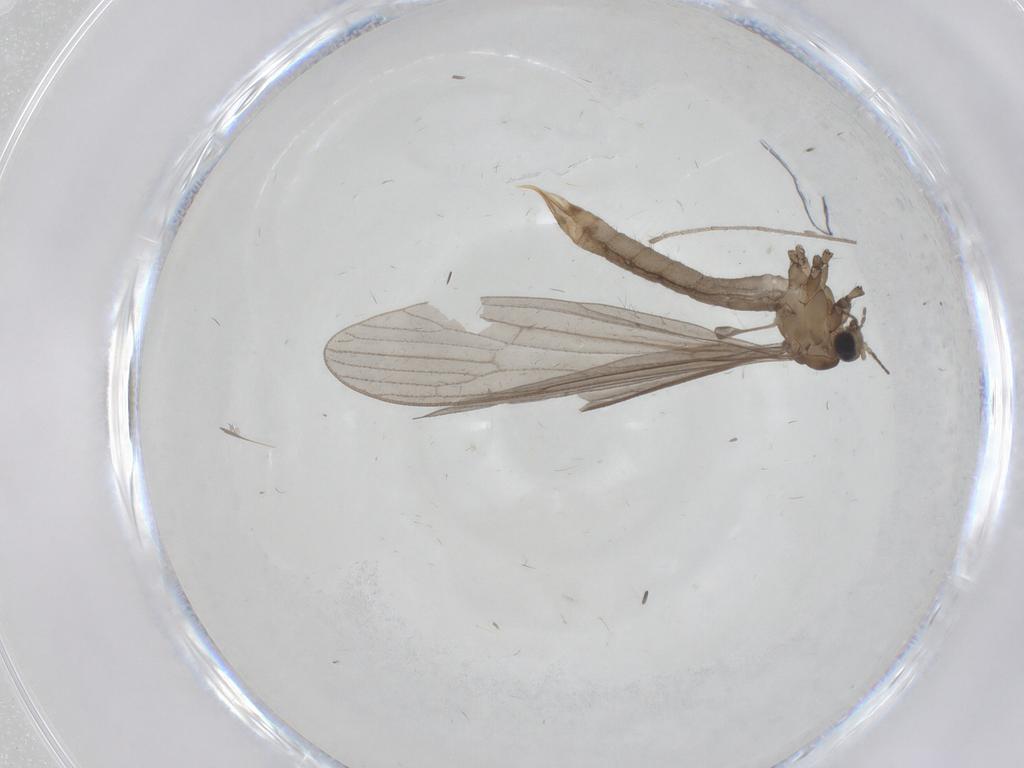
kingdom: Animalia
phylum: Arthropoda
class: Insecta
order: Diptera
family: Limoniidae
